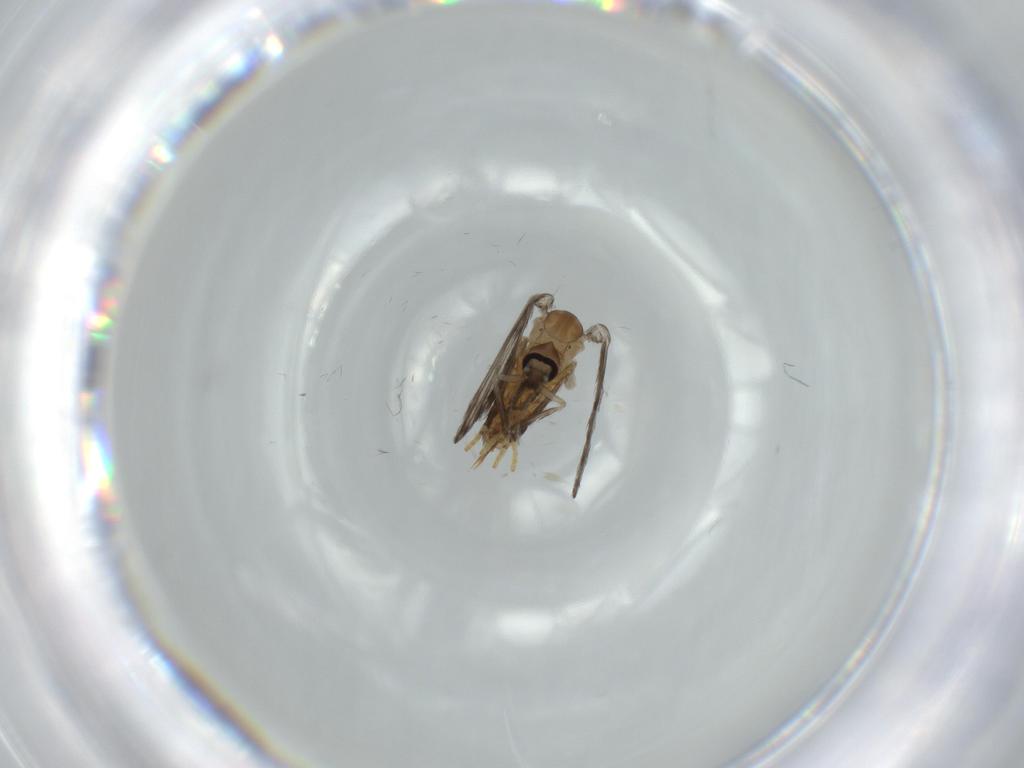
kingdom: Animalia
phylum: Arthropoda
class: Insecta
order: Diptera
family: Psychodidae
